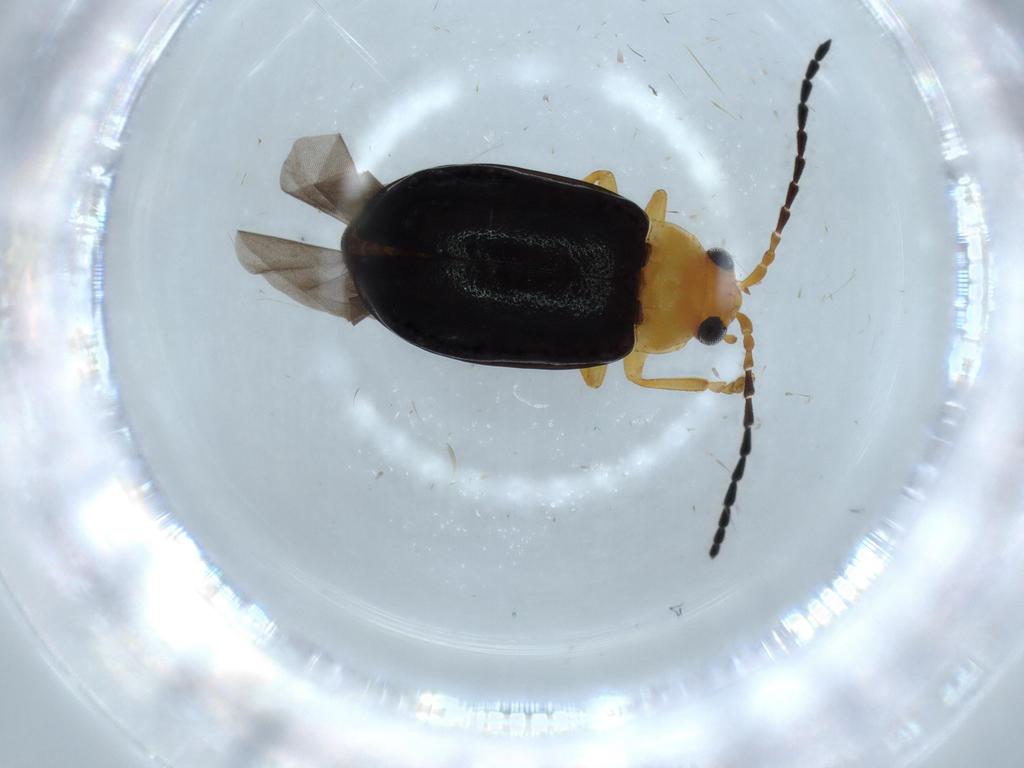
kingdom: Animalia
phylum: Arthropoda
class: Insecta
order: Coleoptera
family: Chrysomelidae
